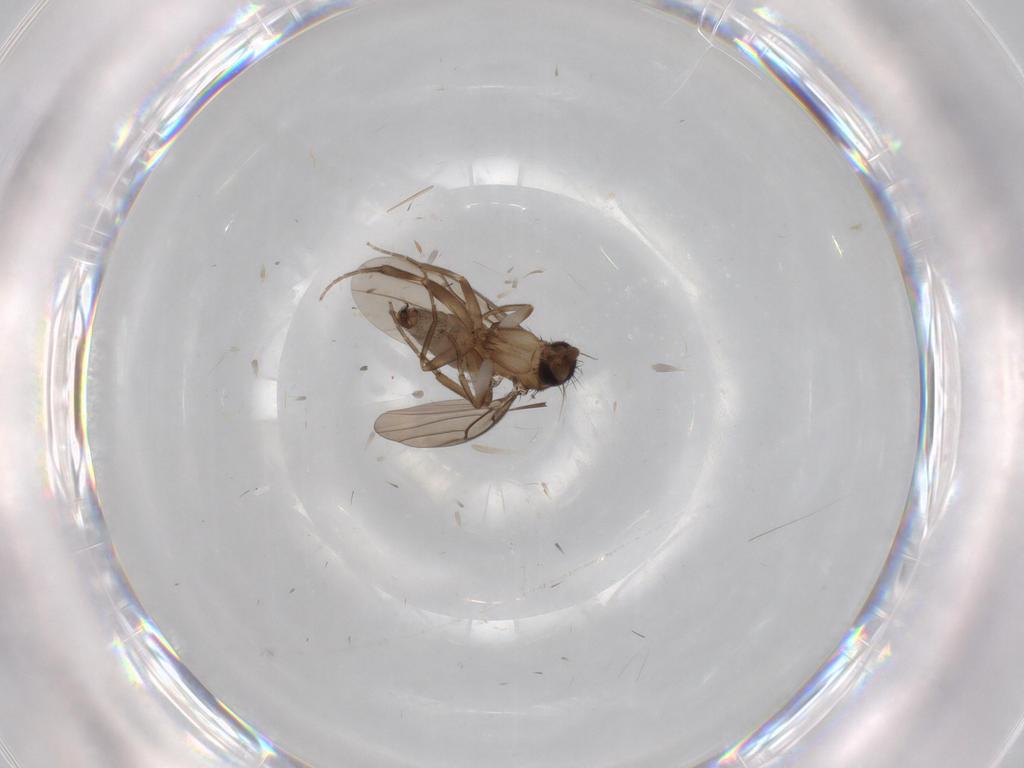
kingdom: Animalia
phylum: Arthropoda
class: Insecta
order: Diptera
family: Limoniidae
